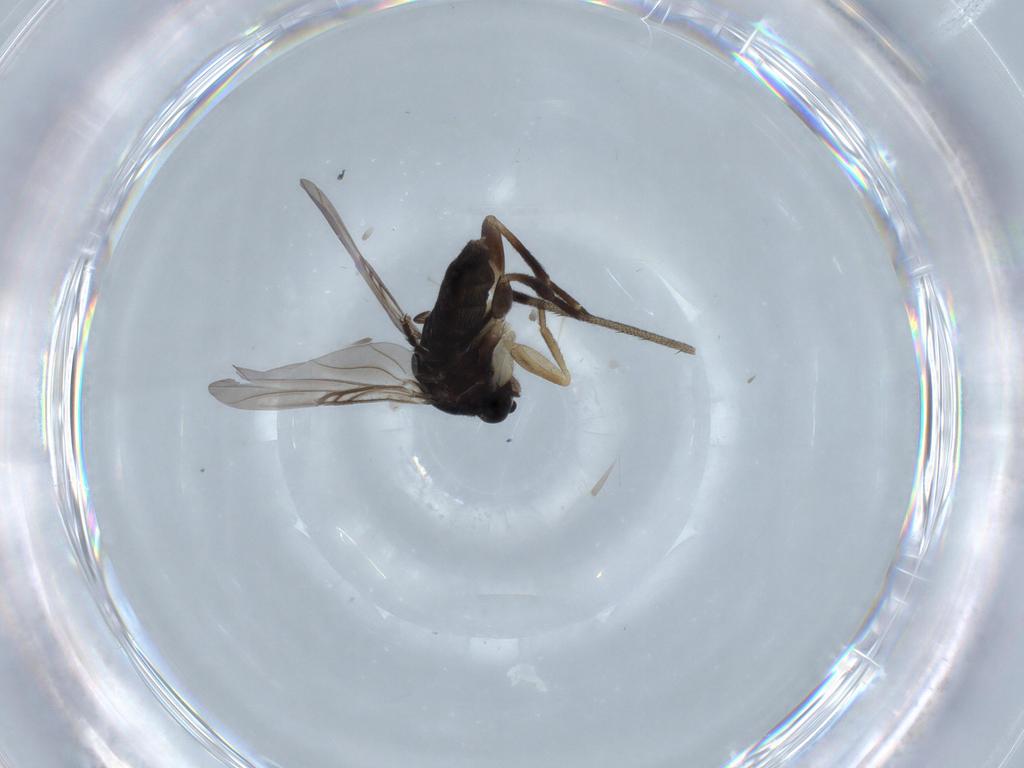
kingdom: Animalia
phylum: Arthropoda
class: Insecta
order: Diptera
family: Phoridae
